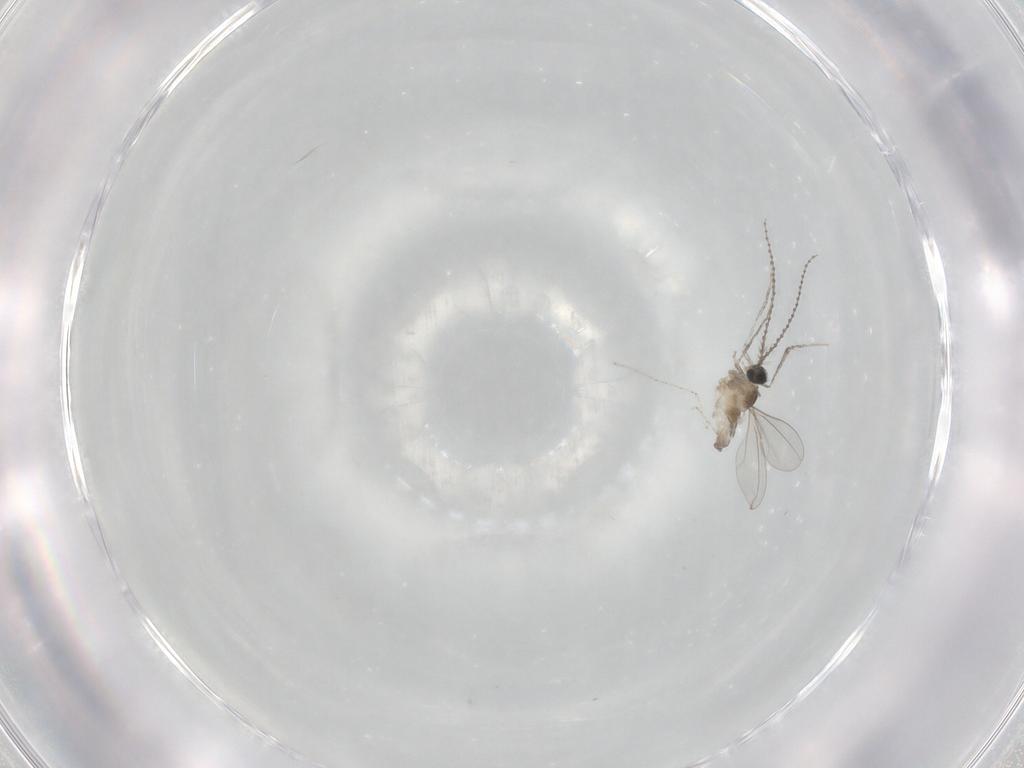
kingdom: Animalia
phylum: Arthropoda
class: Insecta
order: Diptera
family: Cecidomyiidae
